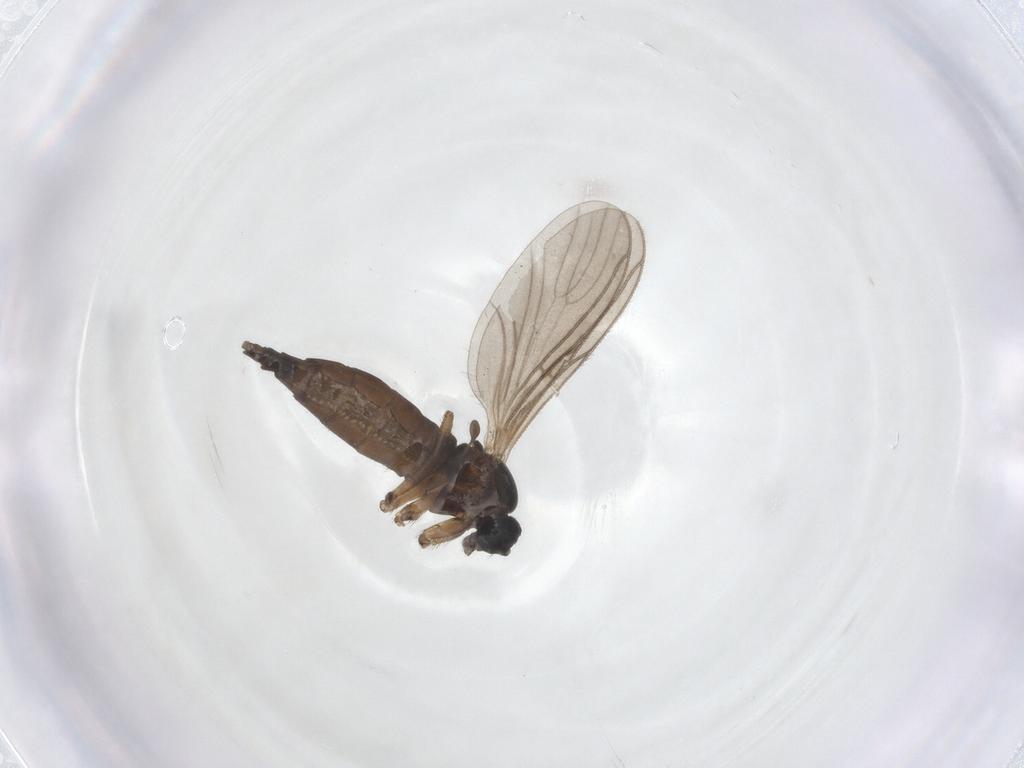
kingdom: Animalia
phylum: Arthropoda
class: Insecta
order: Diptera
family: Sciaridae
